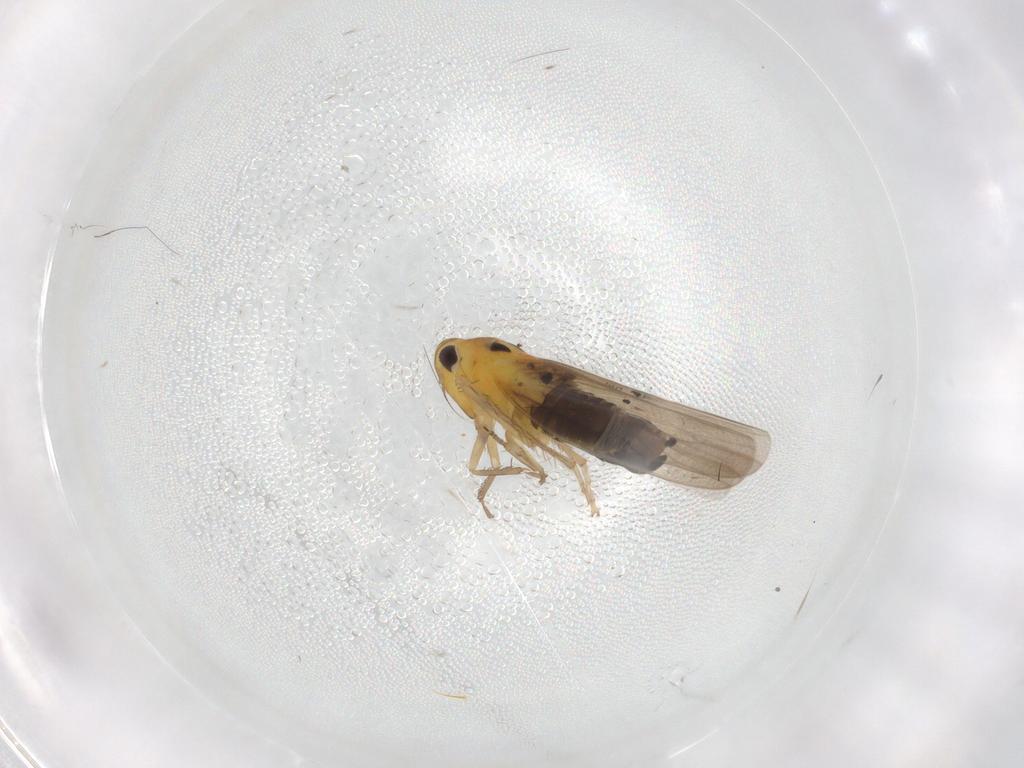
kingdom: Animalia
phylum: Arthropoda
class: Insecta
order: Hemiptera
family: Cicadellidae
